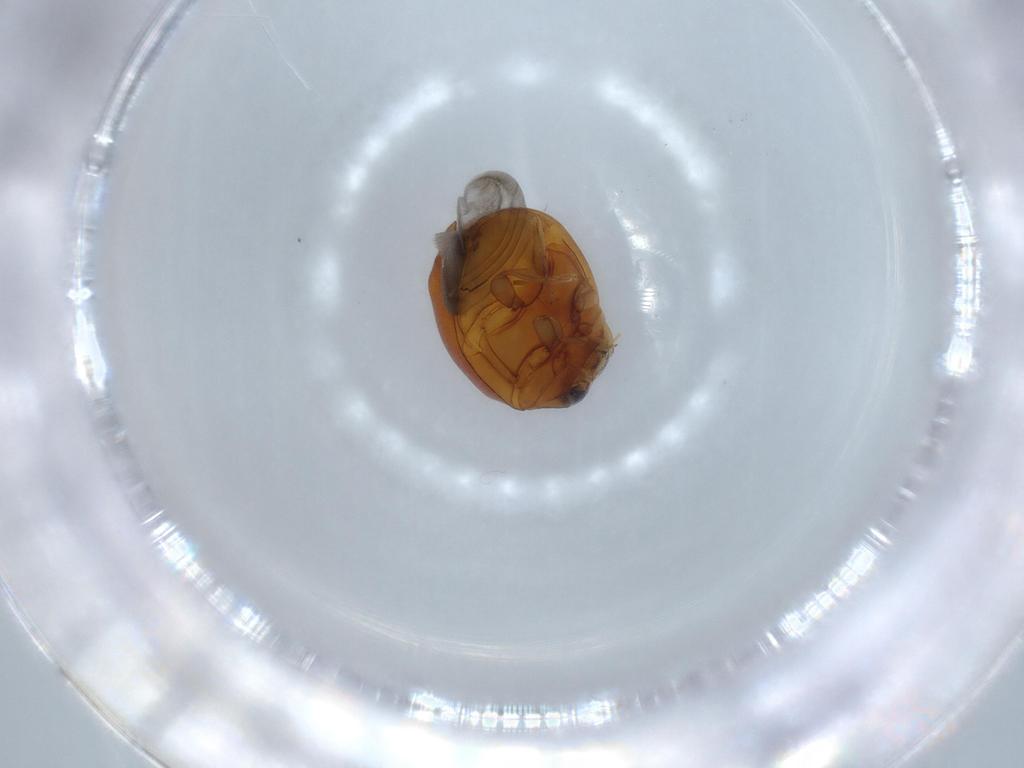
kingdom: Animalia
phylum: Arthropoda
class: Insecta
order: Coleoptera
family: Coccinellidae
